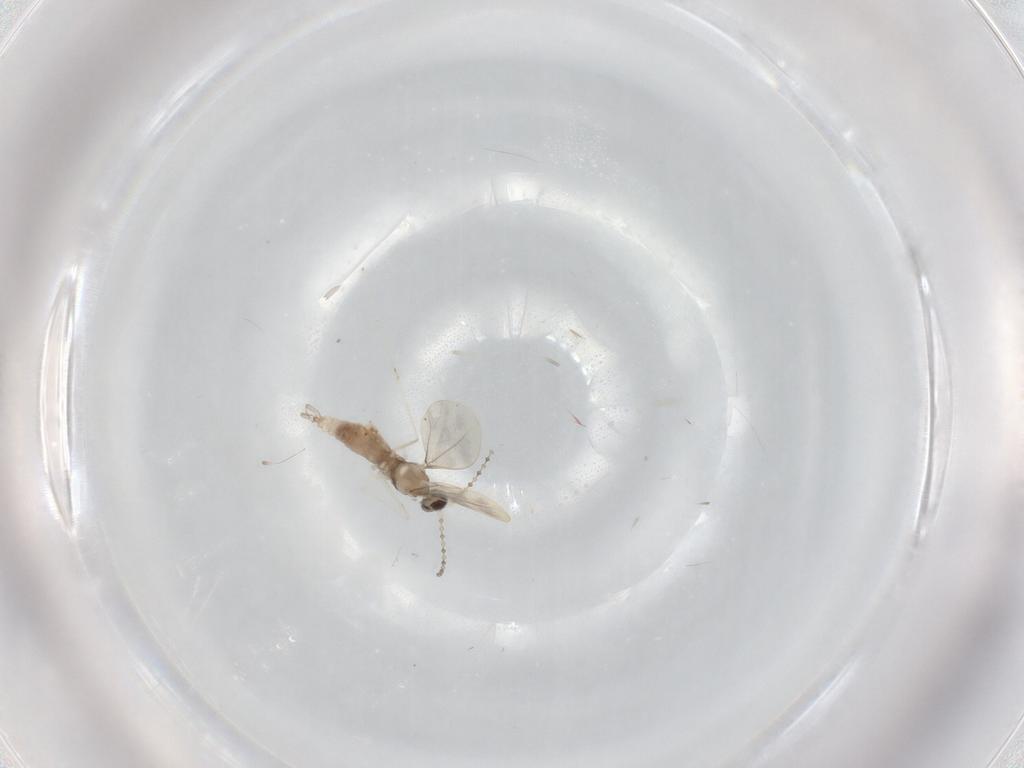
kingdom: Animalia
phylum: Arthropoda
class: Insecta
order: Diptera
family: Cecidomyiidae
